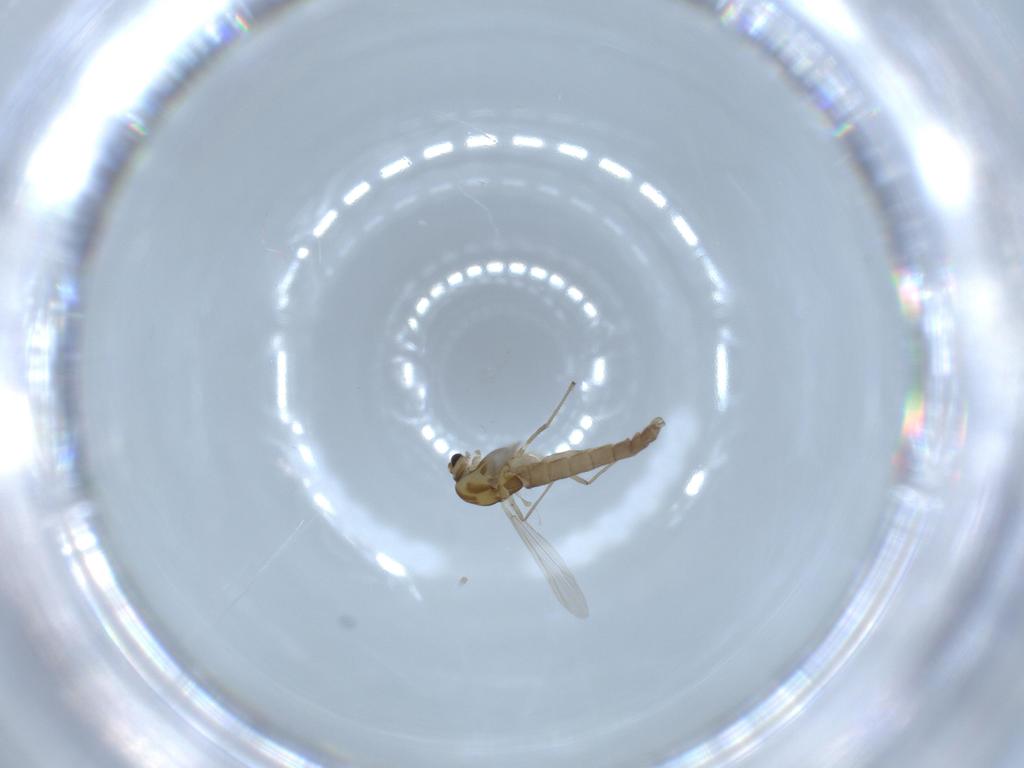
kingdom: Animalia
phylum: Arthropoda
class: Insecta
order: Diptera
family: Chironomidae
